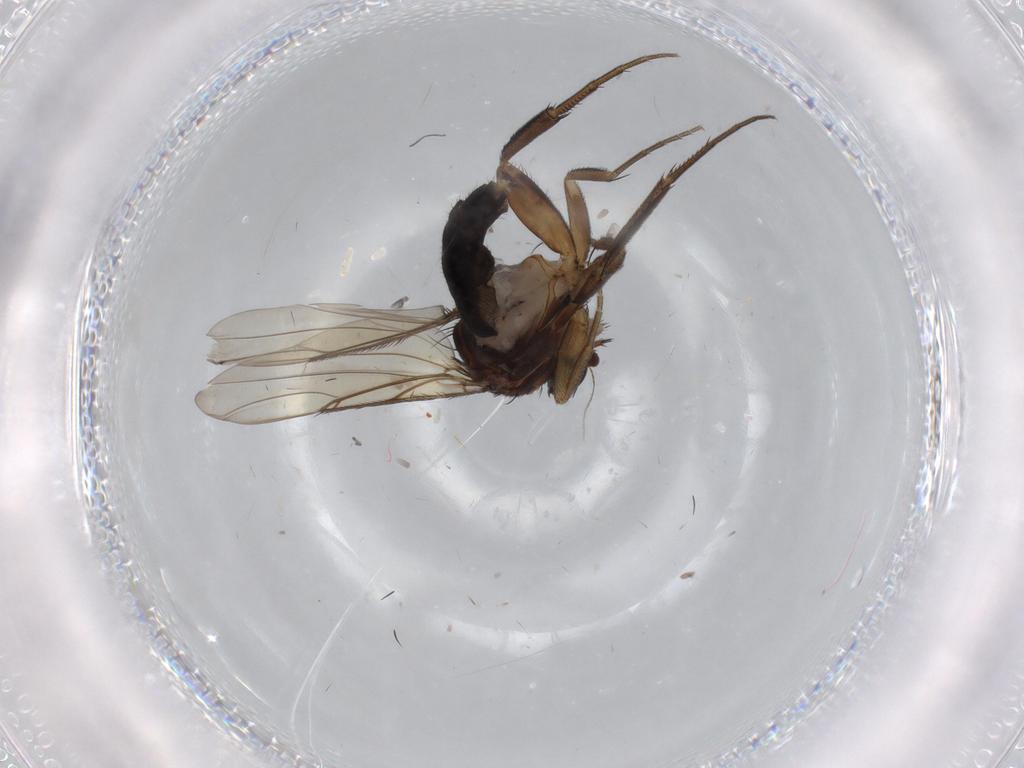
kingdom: Animalia
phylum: Arthropoda
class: Insecta
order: Diptera
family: Phoridae
